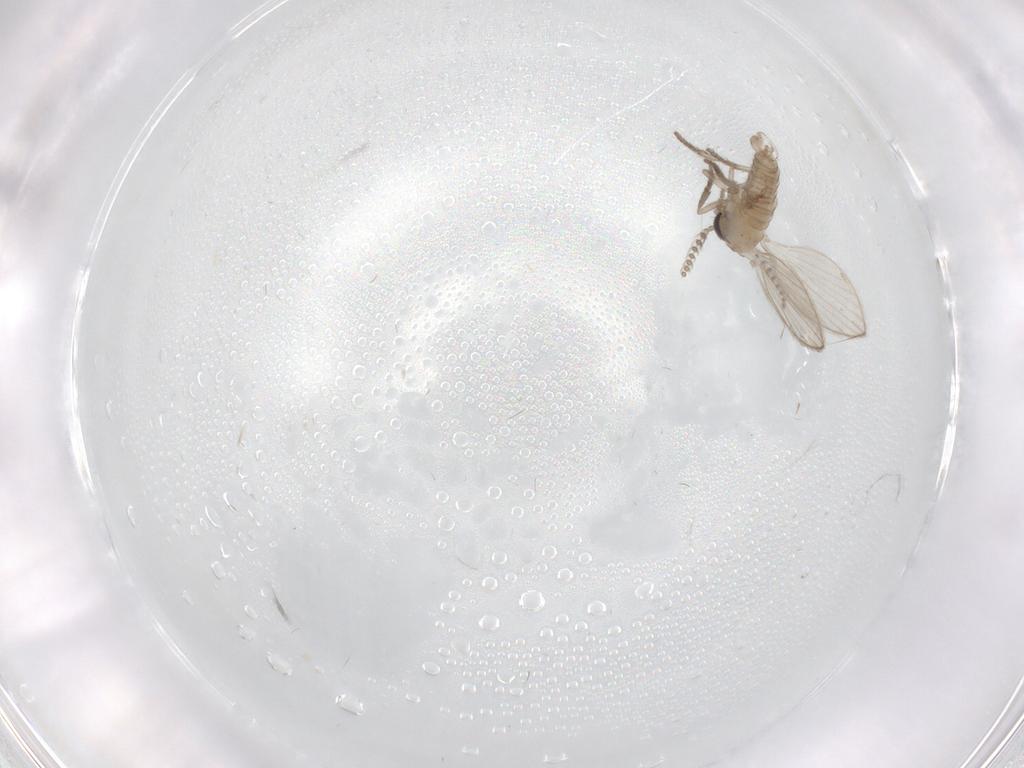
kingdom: Animalia
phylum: Arthropoda
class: Insecta
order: Diptera
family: Psychodidae
